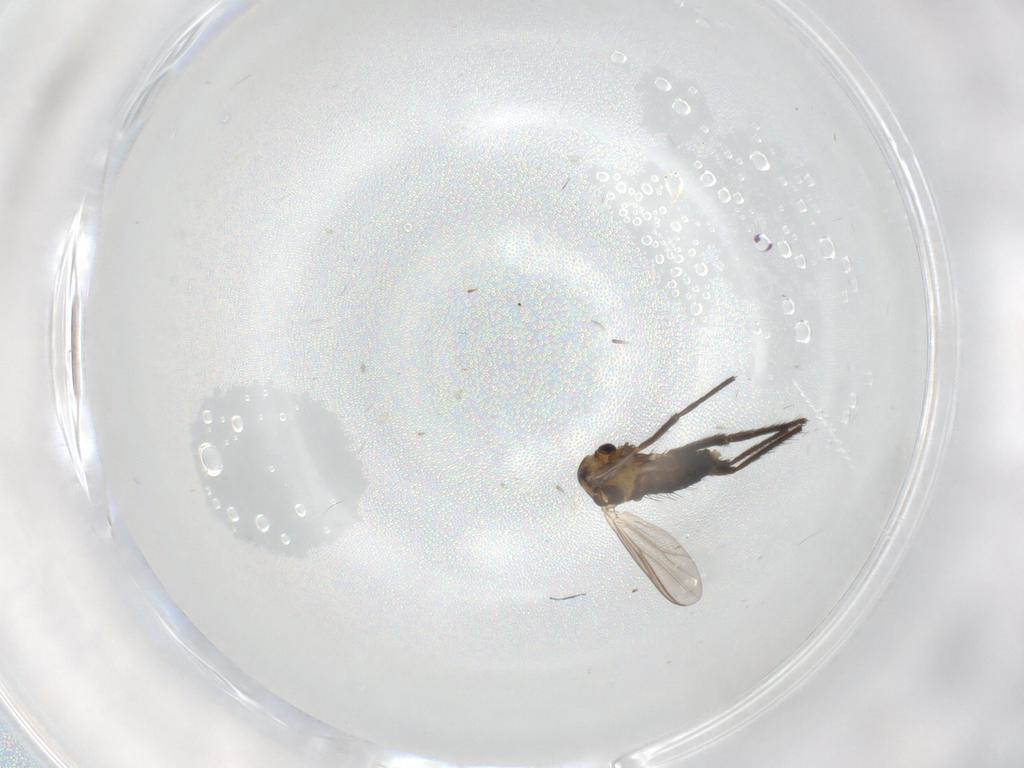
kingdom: Animalia
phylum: Arthropoda
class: Insecta
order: Diptera
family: Chironomidae
